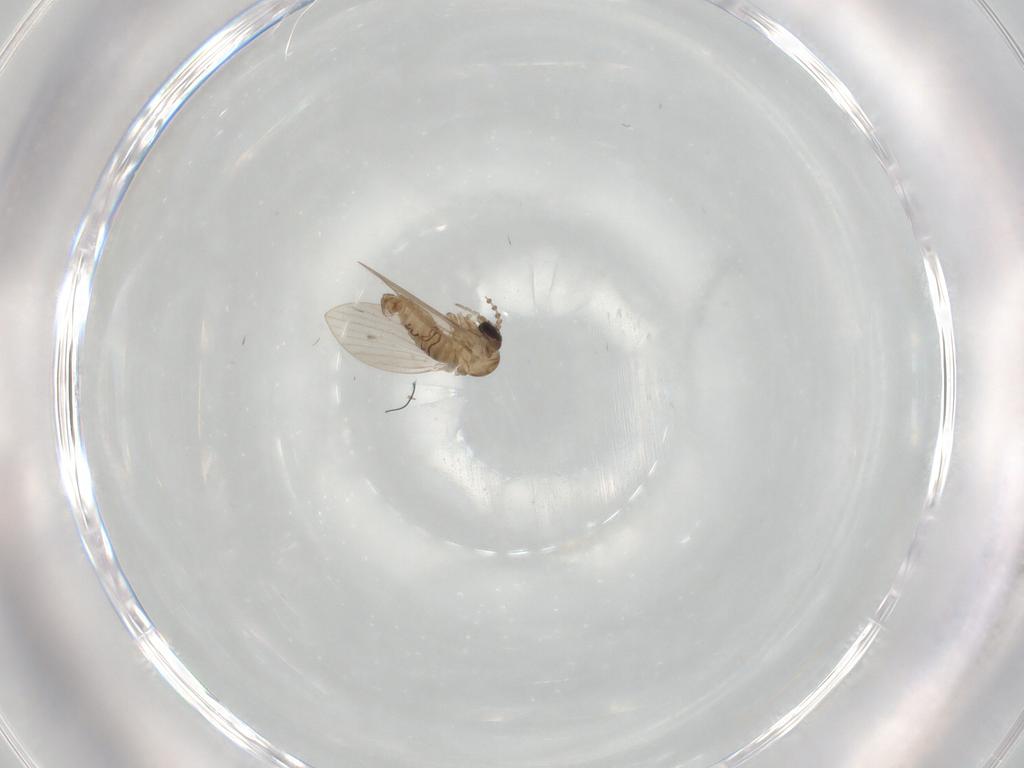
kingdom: Animalia
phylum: Arthropoda
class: Insecta
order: Diptera
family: Psychodidae
